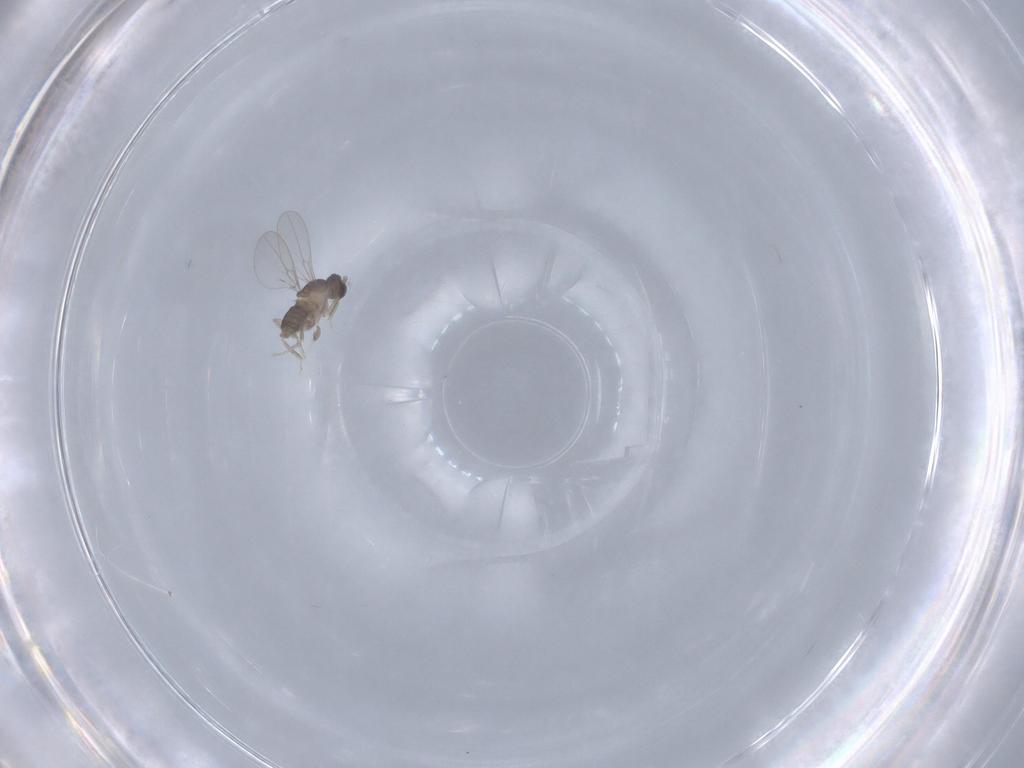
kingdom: Animalia
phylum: Arthropoda
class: Insecta
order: Diptera
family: Cecidomyiidae
